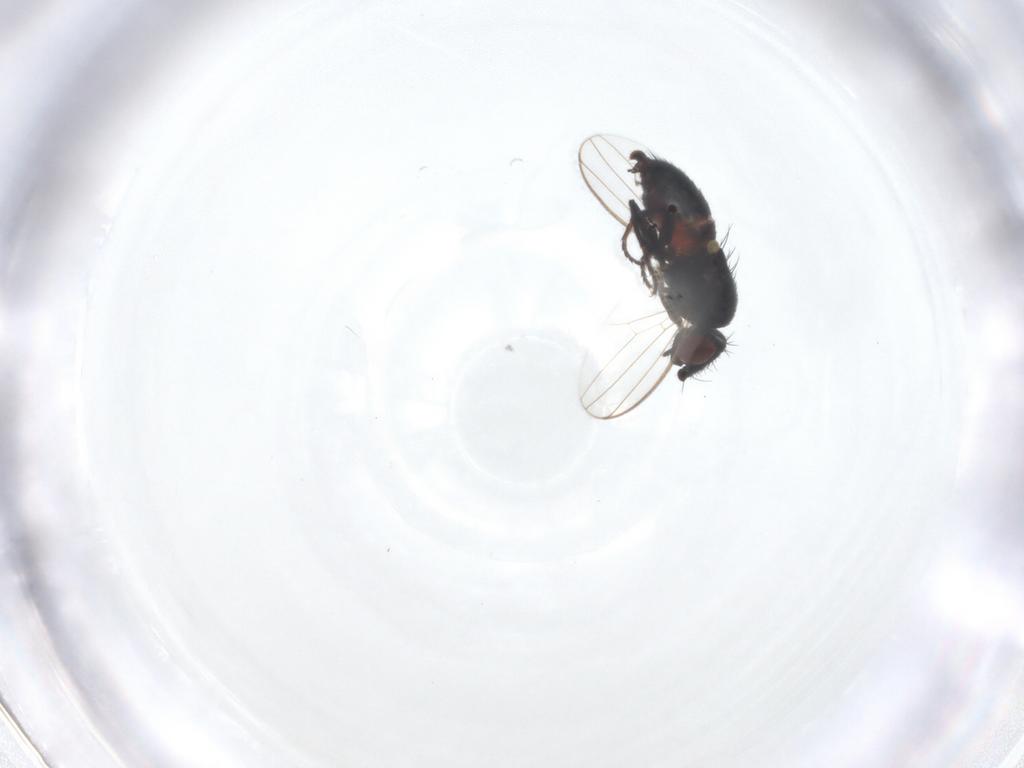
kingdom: Animalia
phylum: Arthropoda
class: Insecta
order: Diptera
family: Milichiidae
